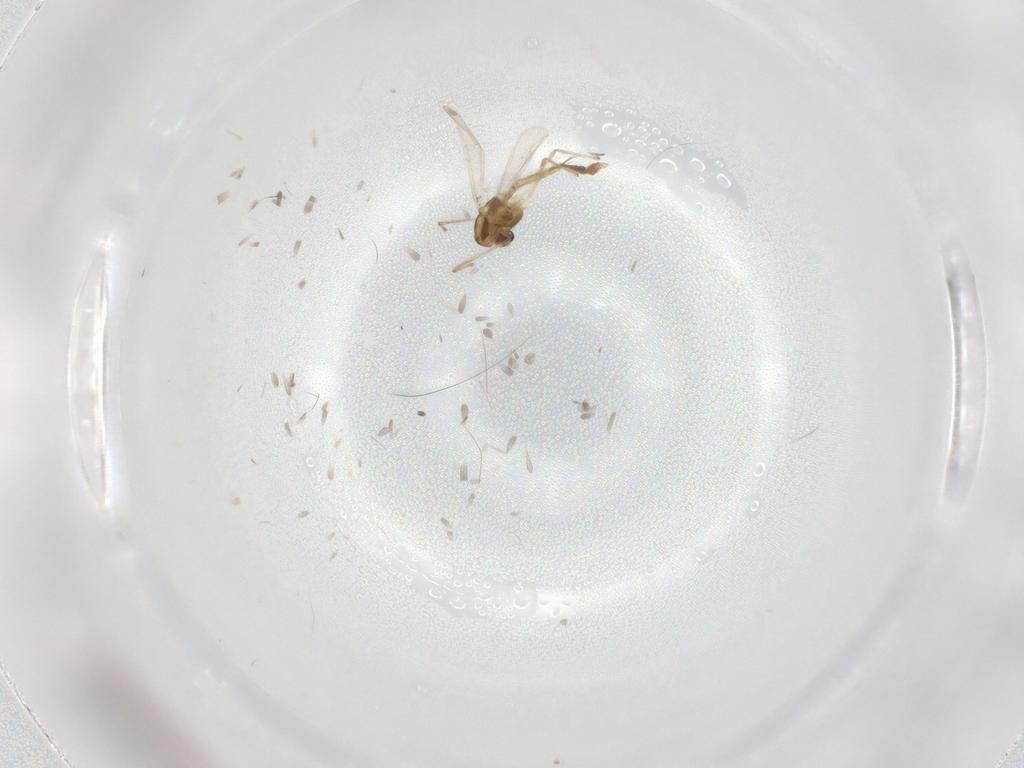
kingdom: Animalia
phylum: Arthropoda
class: Insecta
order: Diptera
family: Chironomidae
